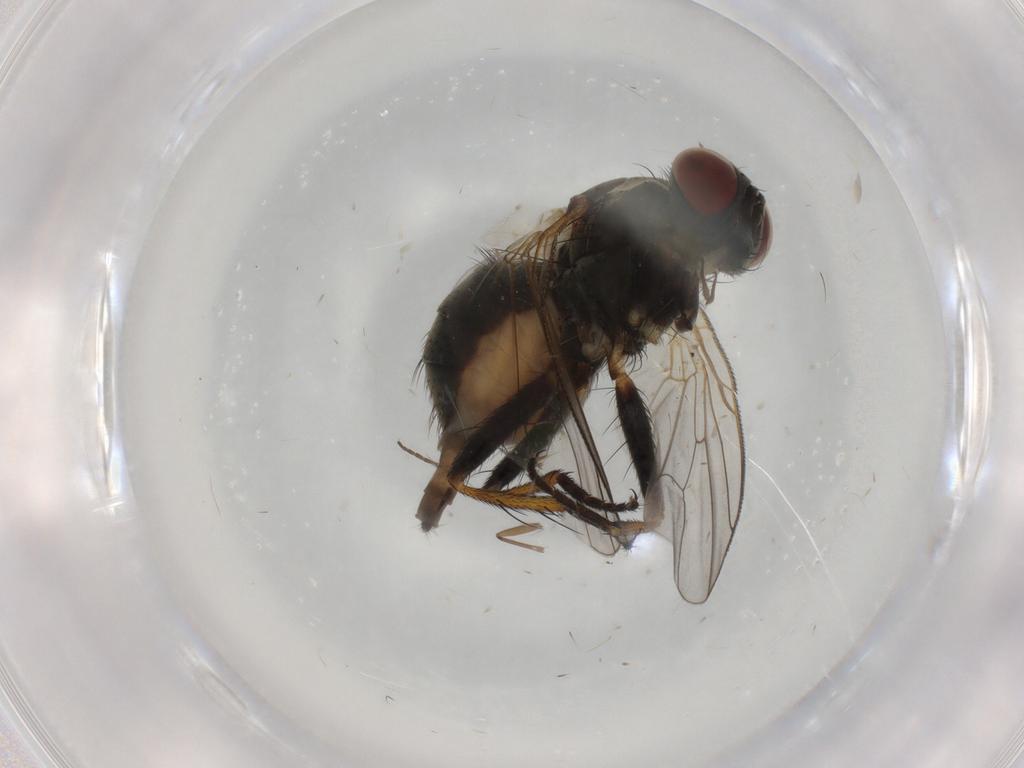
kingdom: Animalia
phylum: Arthropoda
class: Insecta
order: Diptera
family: Phoridae
